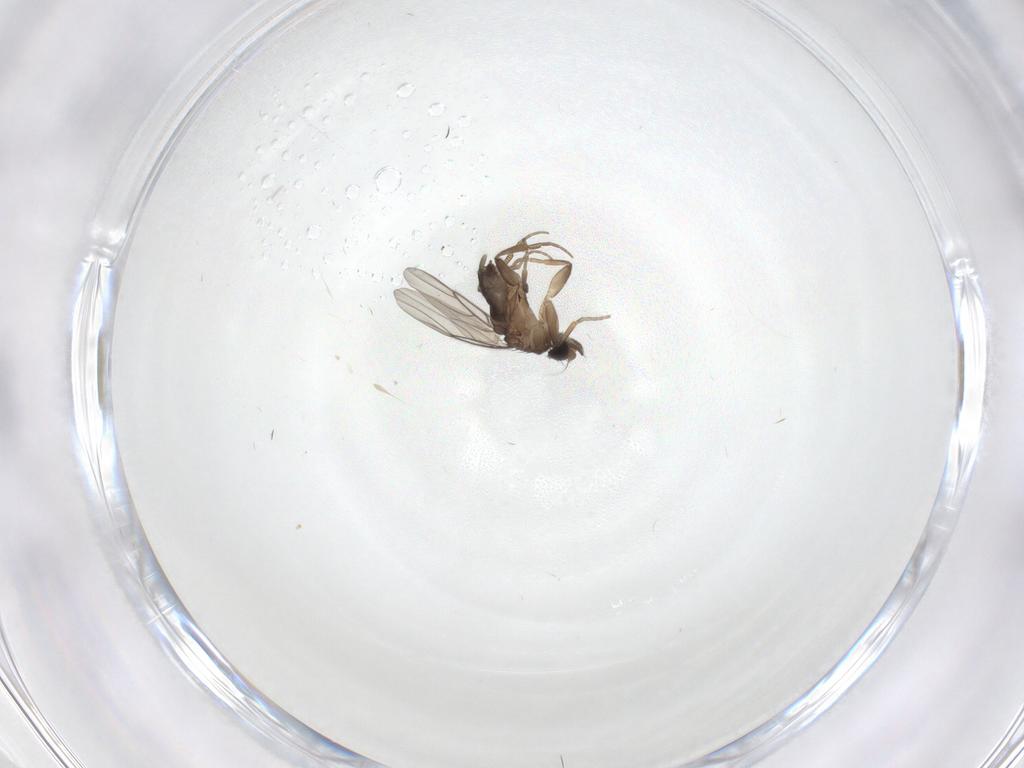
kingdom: Animalia
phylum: Arthropoda
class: Insecta
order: Diptera
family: Phoridae
